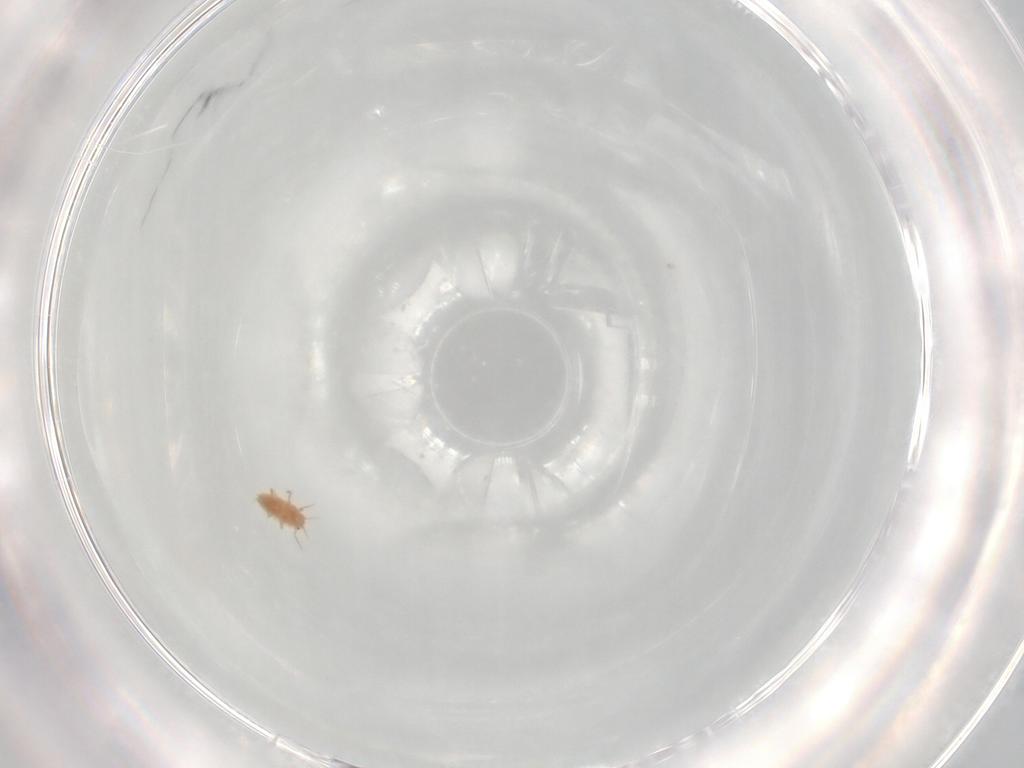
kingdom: Animalia
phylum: Arthropoda
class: Insecta
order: Hemiptera
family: Coccoidea_incertae_sedis
